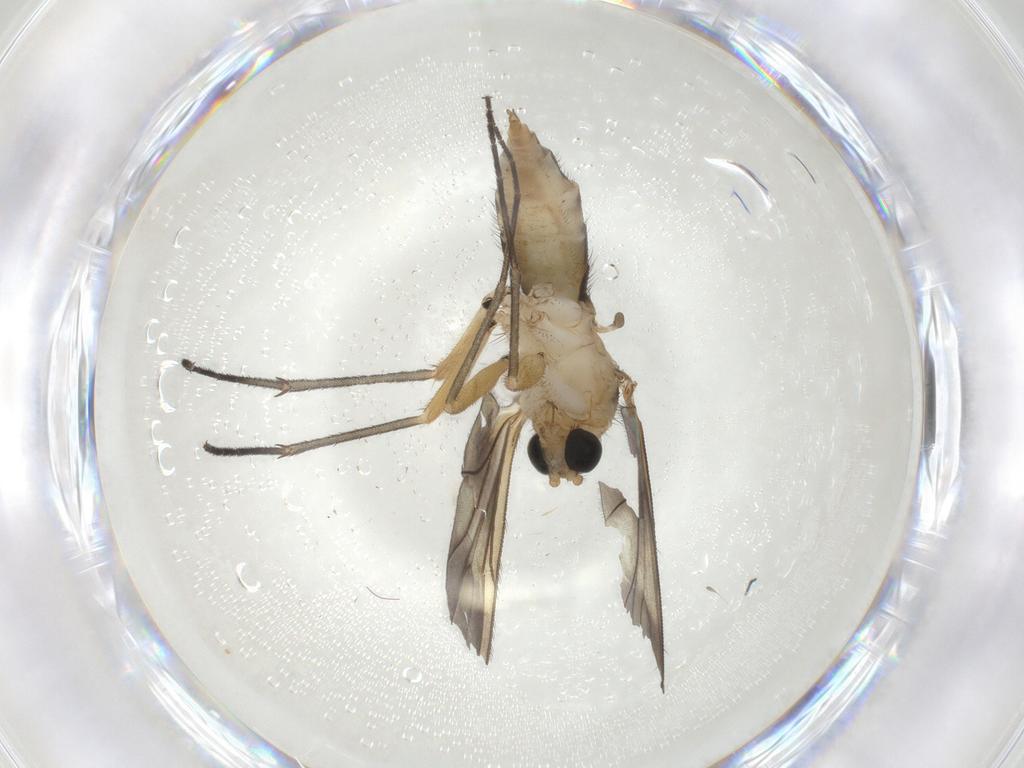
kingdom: Animalia
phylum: Arthropoda
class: Insecta
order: Diptera
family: Sciaridae
